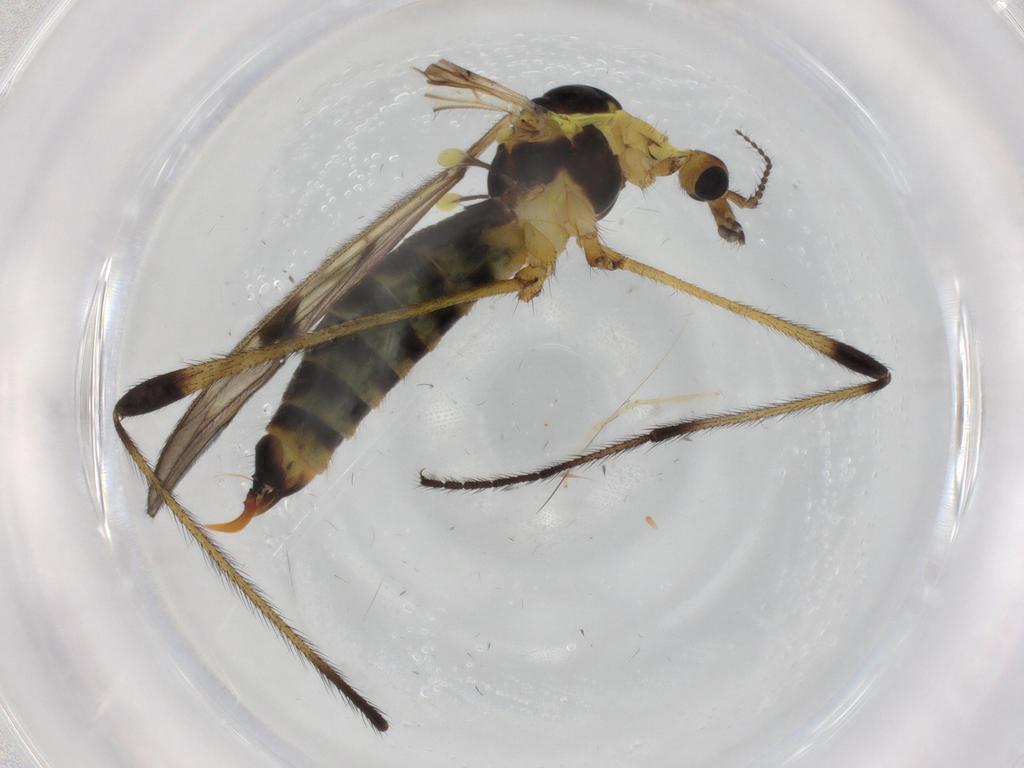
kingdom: Animalia
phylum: Arthropoda
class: Insecta
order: Diptera
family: Limoniidae
